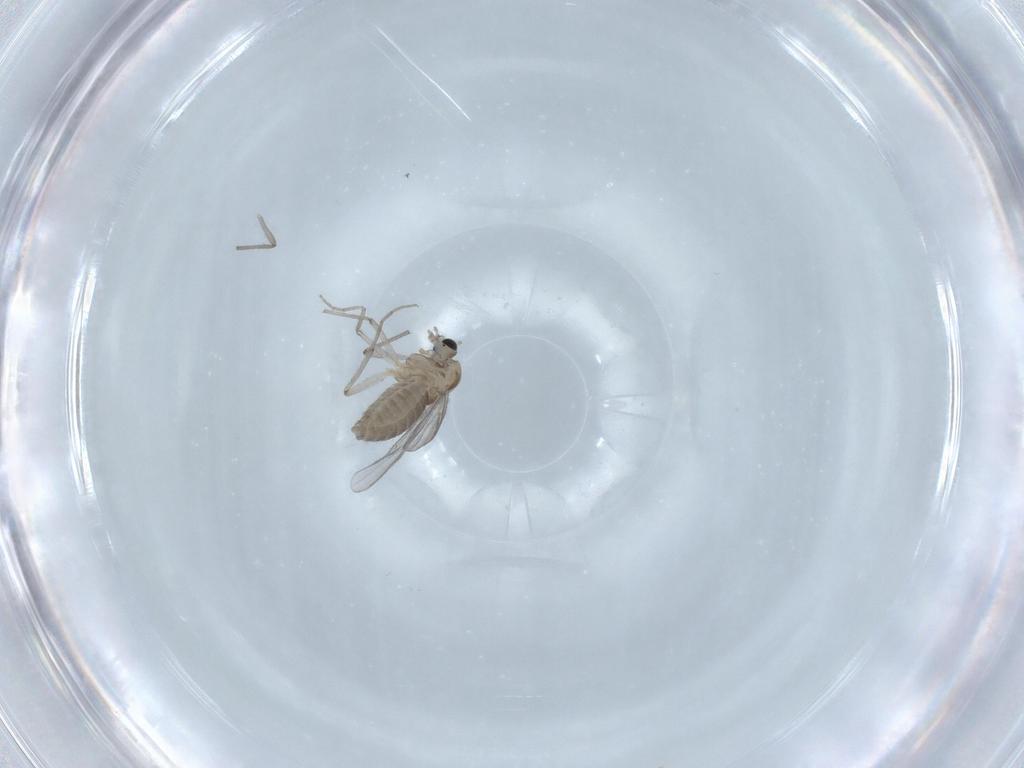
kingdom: Animalia
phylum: Arthropoda
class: Insecta
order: Diptera
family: Chironomidae
